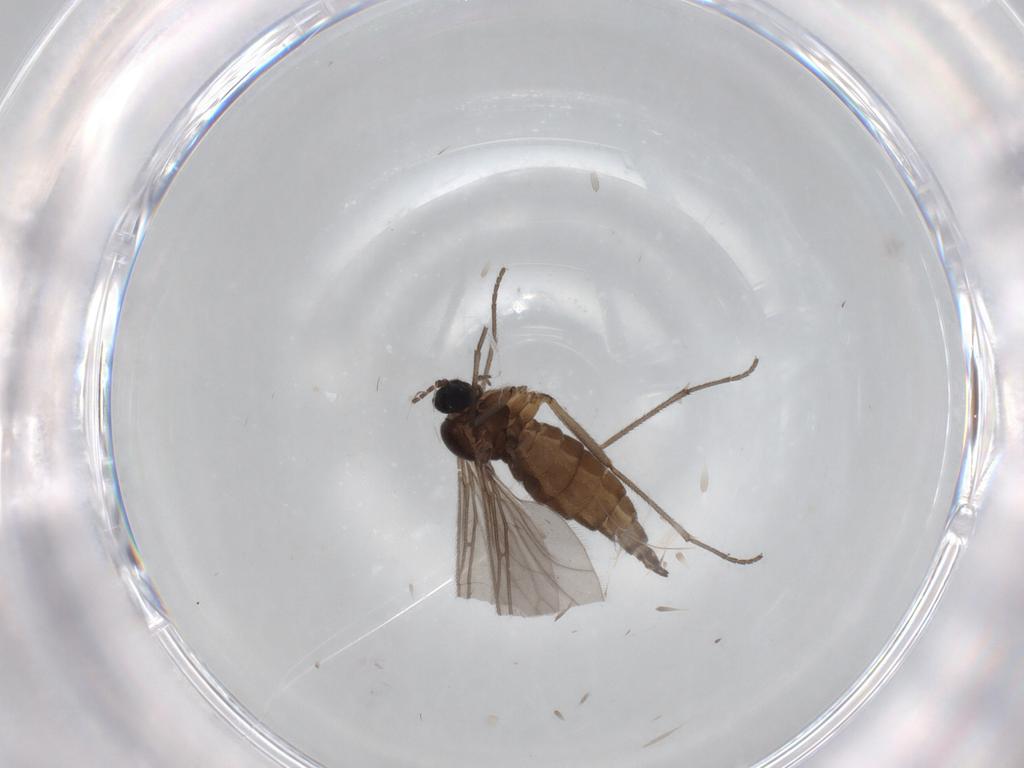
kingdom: Animalia
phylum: Arthropoda
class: Insecta
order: Diptera
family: Sciaridae
